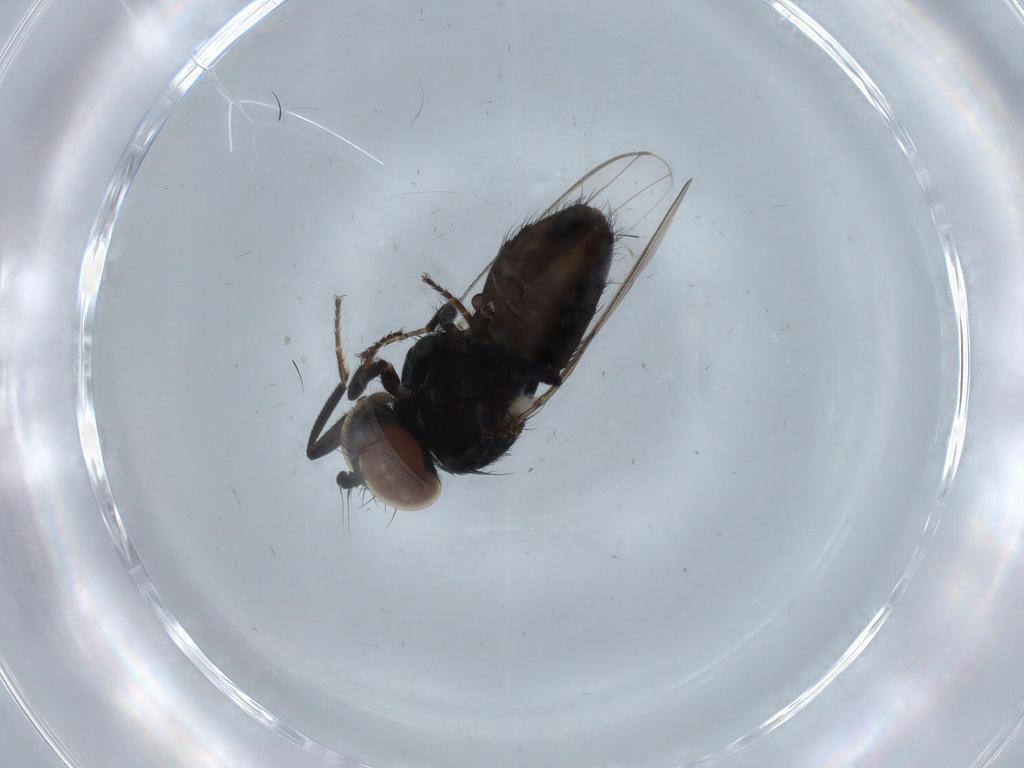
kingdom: Animalia
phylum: Arthropoda
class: Insecta
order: Diptera
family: Milichiidae
